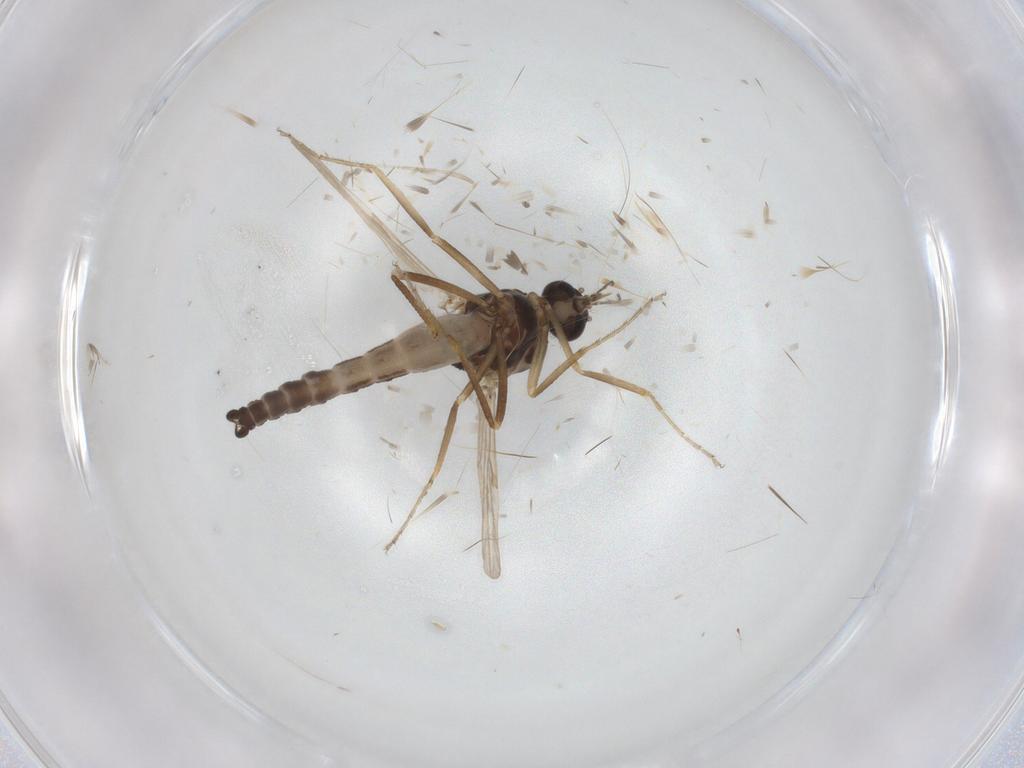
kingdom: Animalia
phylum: Arthropoda
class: Insecta
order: Diptera
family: Ceratopogonidae
